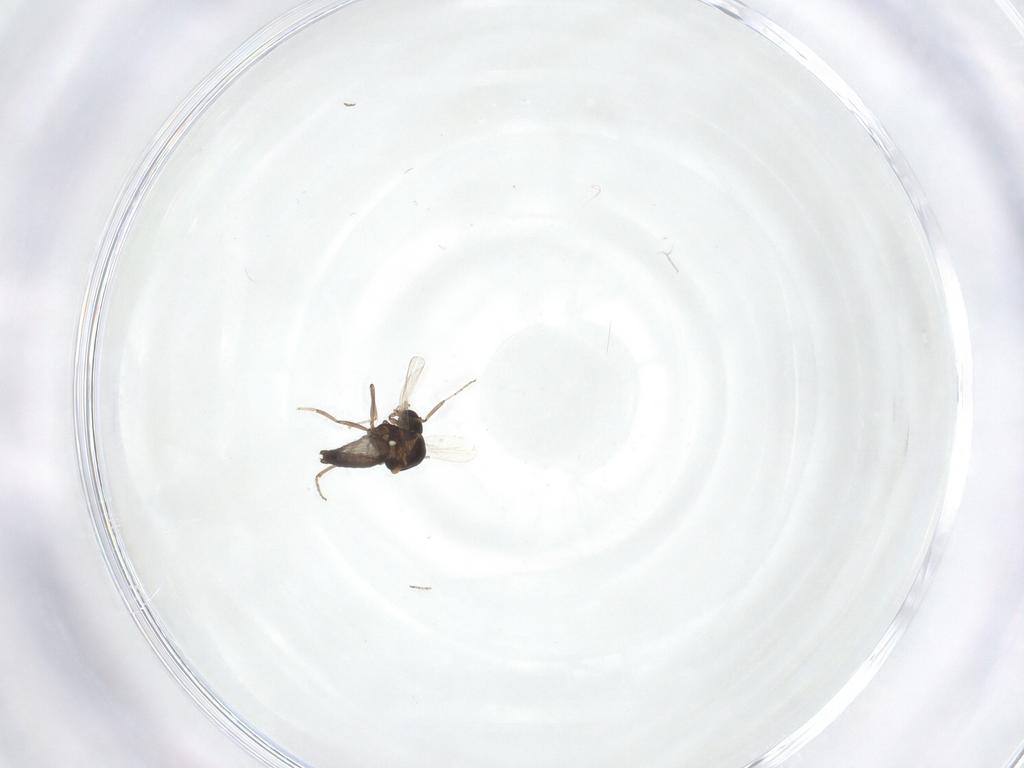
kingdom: Animalia
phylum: Arthropoda
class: Insecta
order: Diptera
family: Ceratopogonidae
